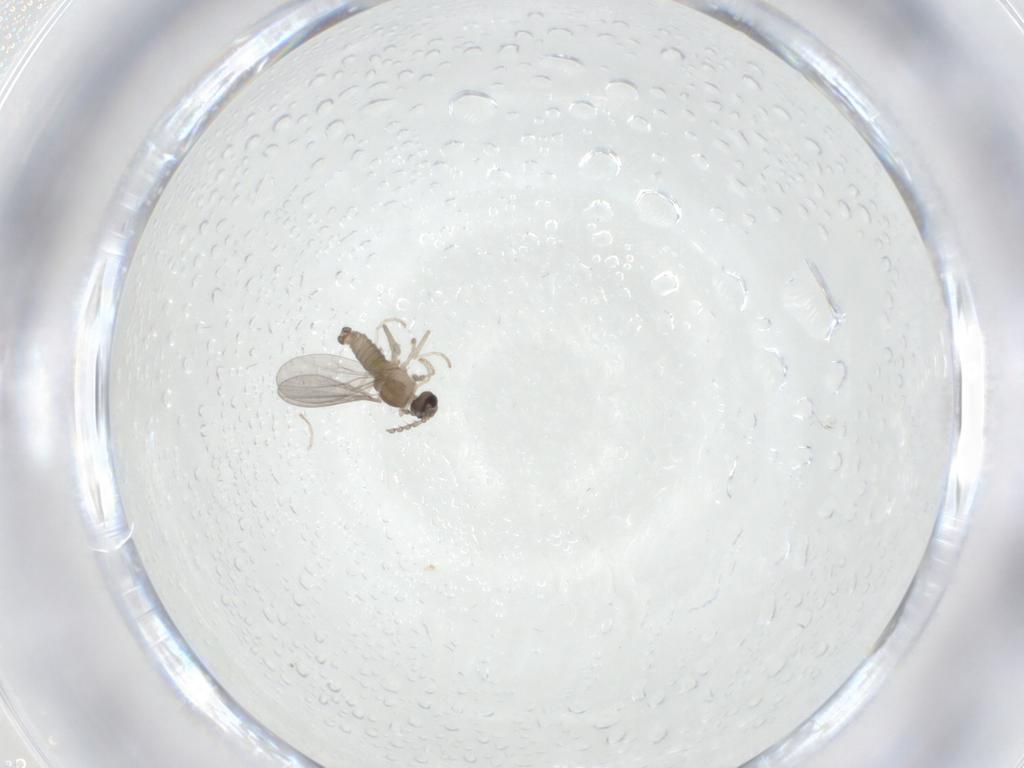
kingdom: Animalia
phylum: Arthropoda
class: Insecta
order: Diptera
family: Cecidomyiidae
